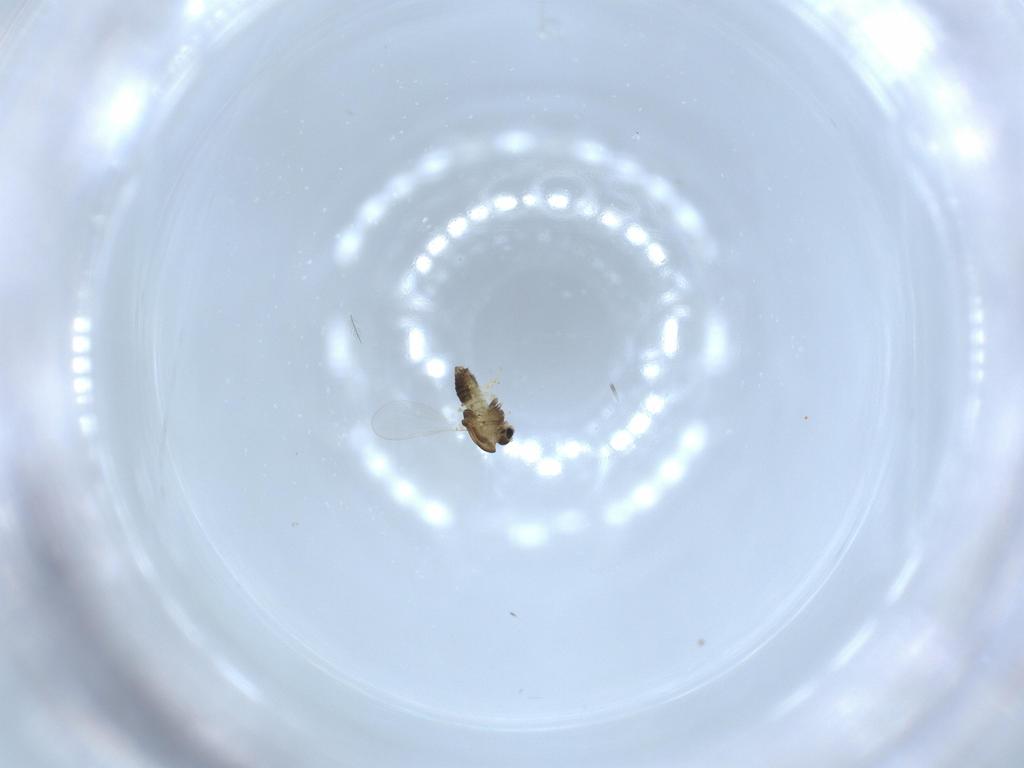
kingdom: Animalia
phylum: Arthropoda
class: Insecta
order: Diptera
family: Chironomidae
